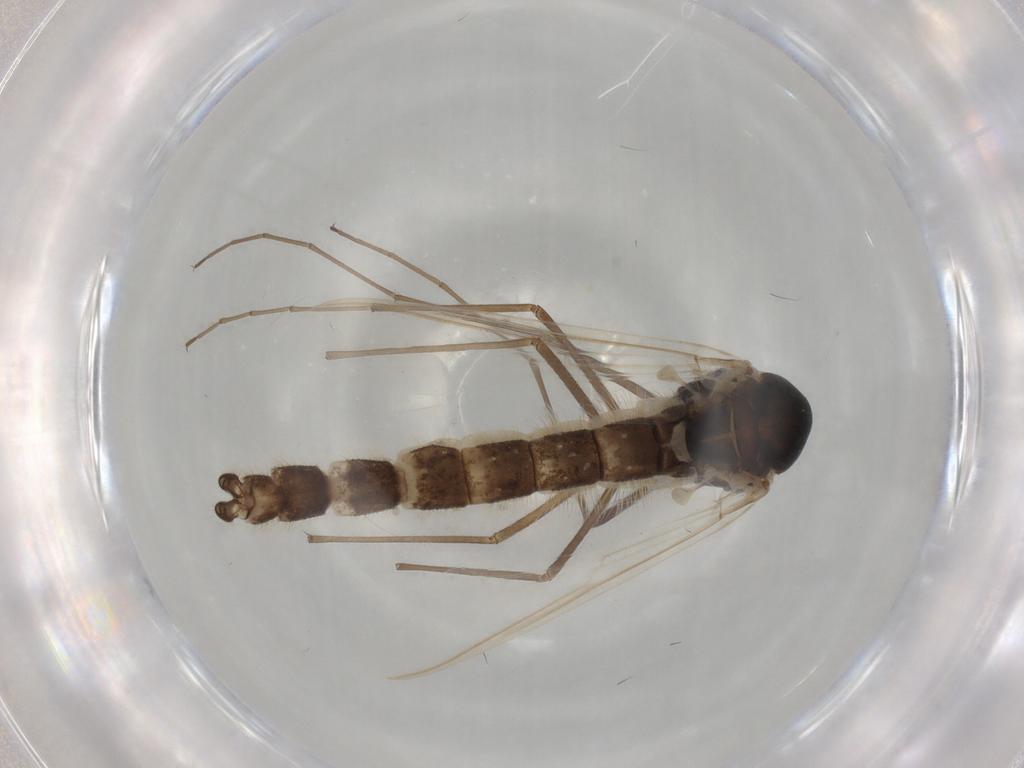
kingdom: Animalia
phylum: Arthropoda
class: Insecta
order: Diptera
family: Chironomidae
